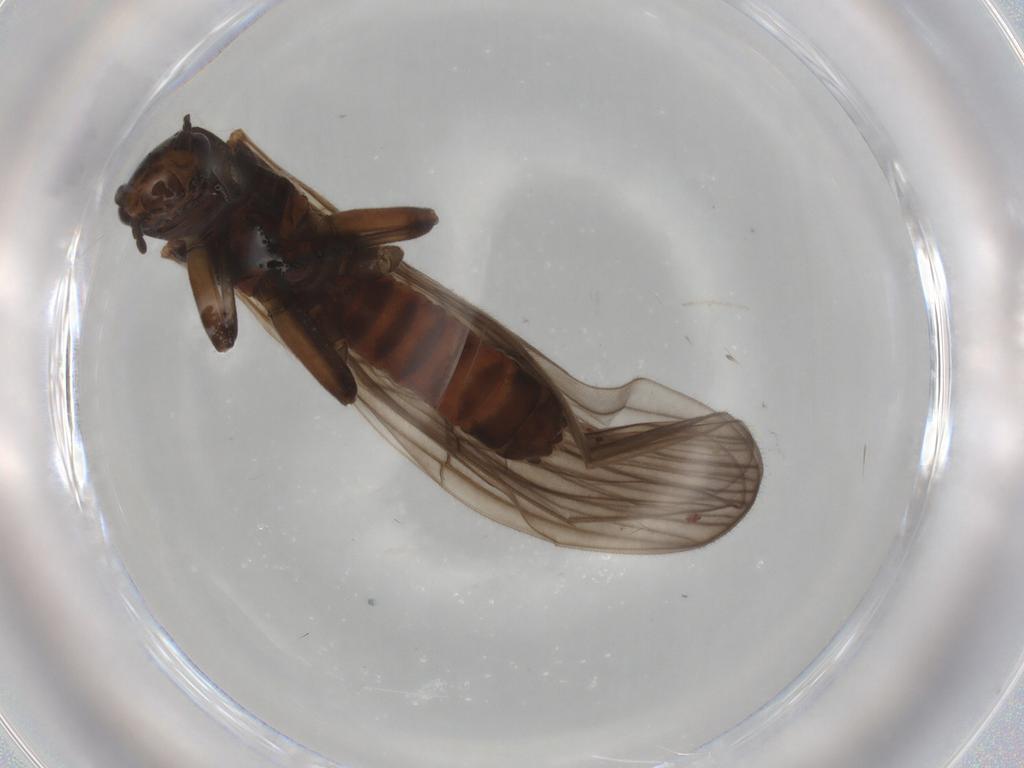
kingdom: Animalia
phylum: Arthropoda
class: Insecta
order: Plecoptera
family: Notonemouridae
